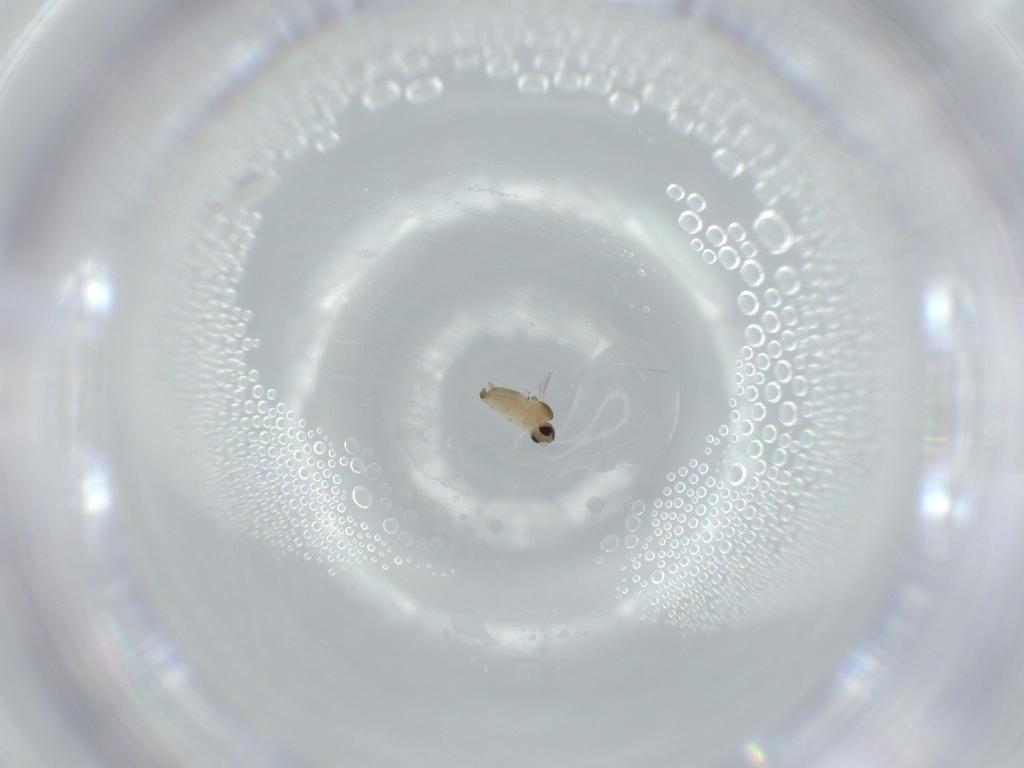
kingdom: Animalia
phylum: Arthropoda
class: Insecta
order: Diptera
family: Cecidomyiidae
